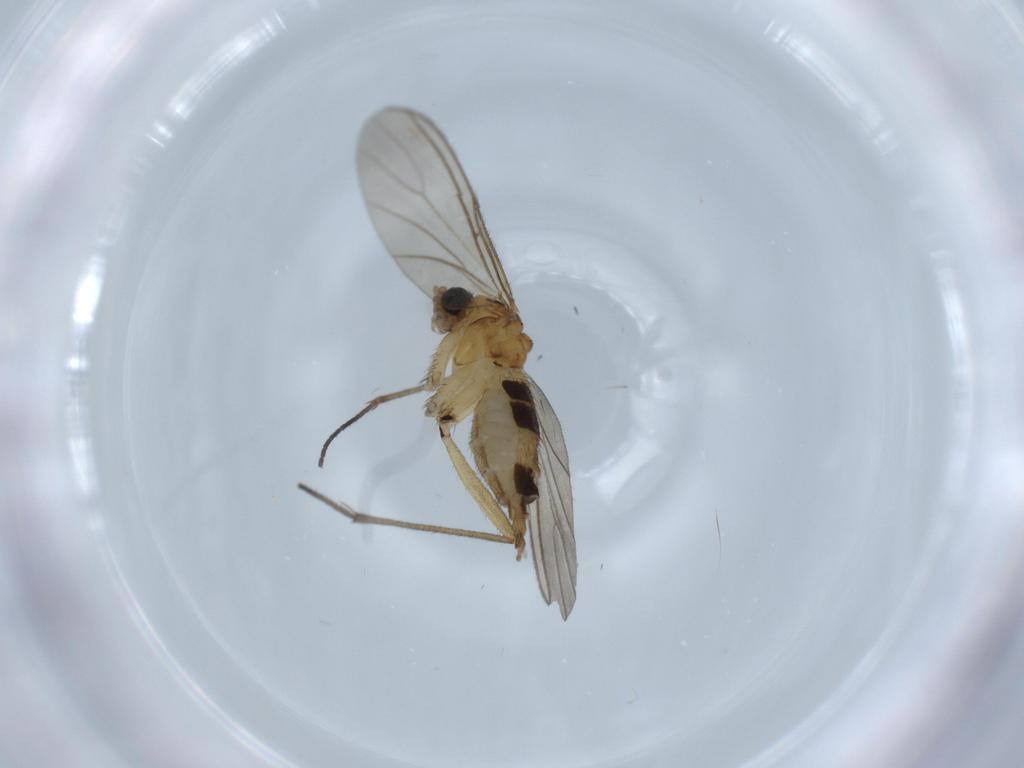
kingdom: Animalia
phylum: Arthropoda
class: Insecta
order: Diptera
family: Sciaridae
